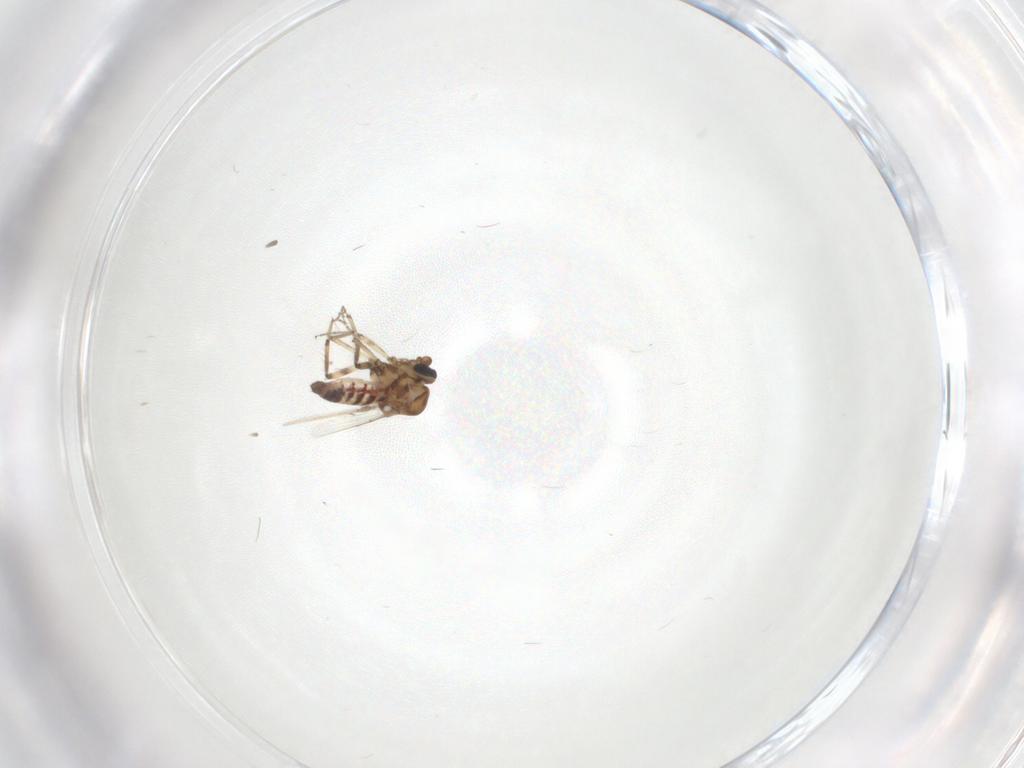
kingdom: Animalia
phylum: Arthropoda
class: Insecta
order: Diptera
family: Ceratopogonidae
